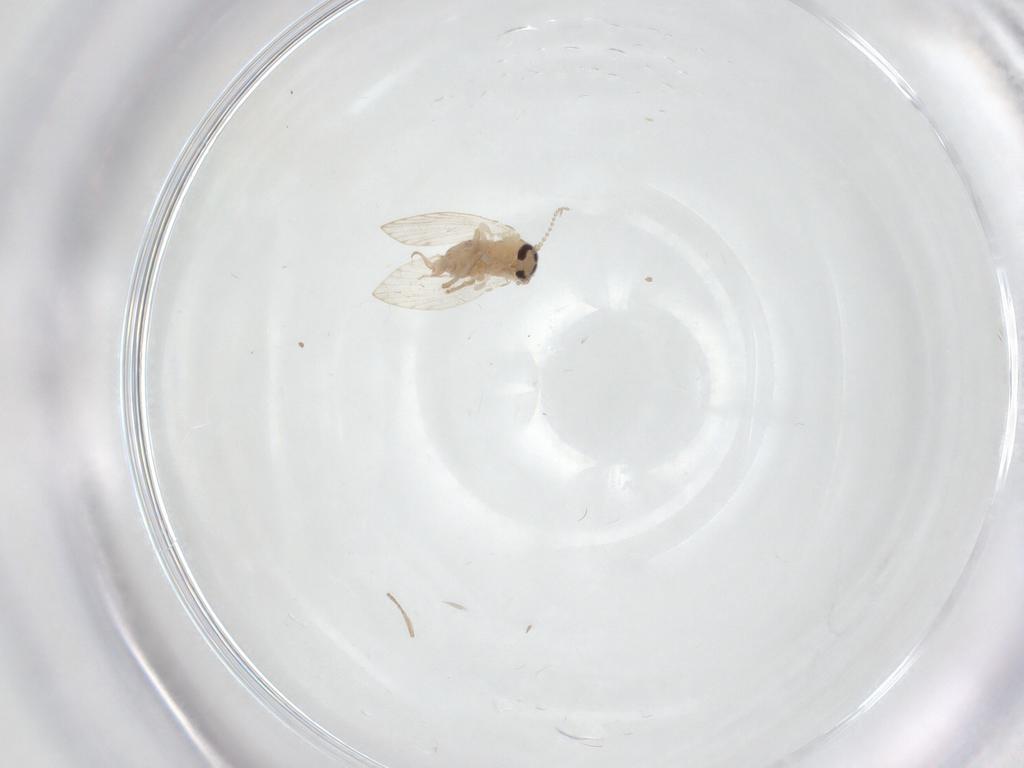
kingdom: Animalia
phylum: Arthropoda
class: Insecta
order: Diptera
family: Psychodidae
